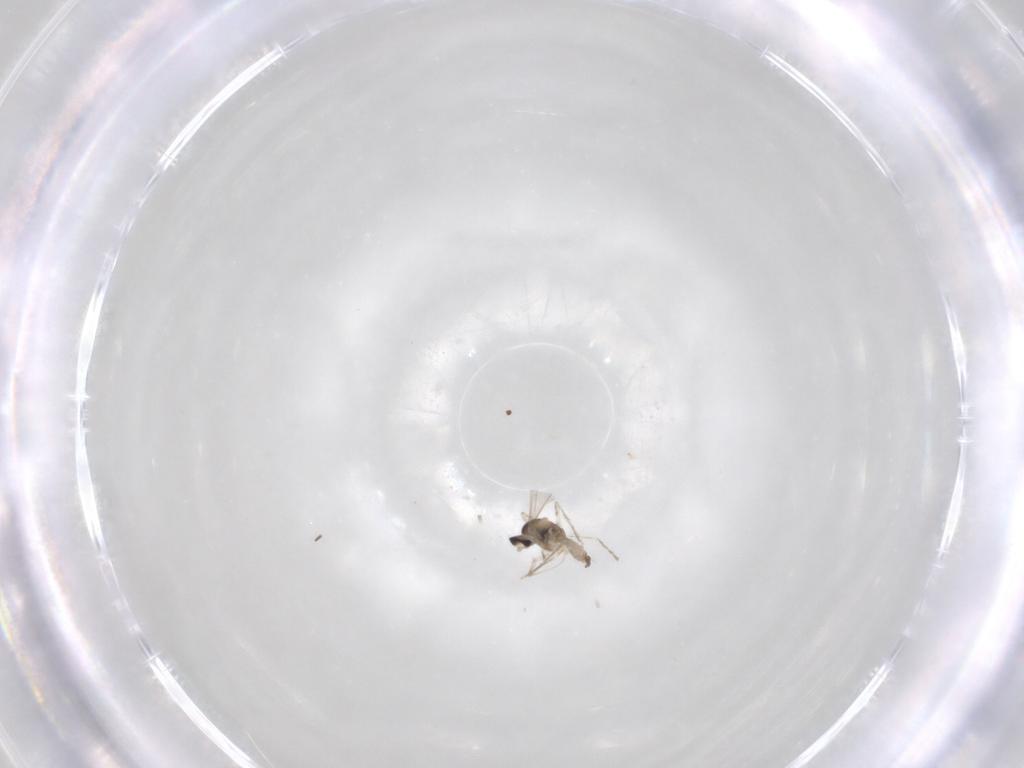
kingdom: Animalia
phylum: Arthropoda
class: Insecta
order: Diptera
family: Cecidomyiidae
